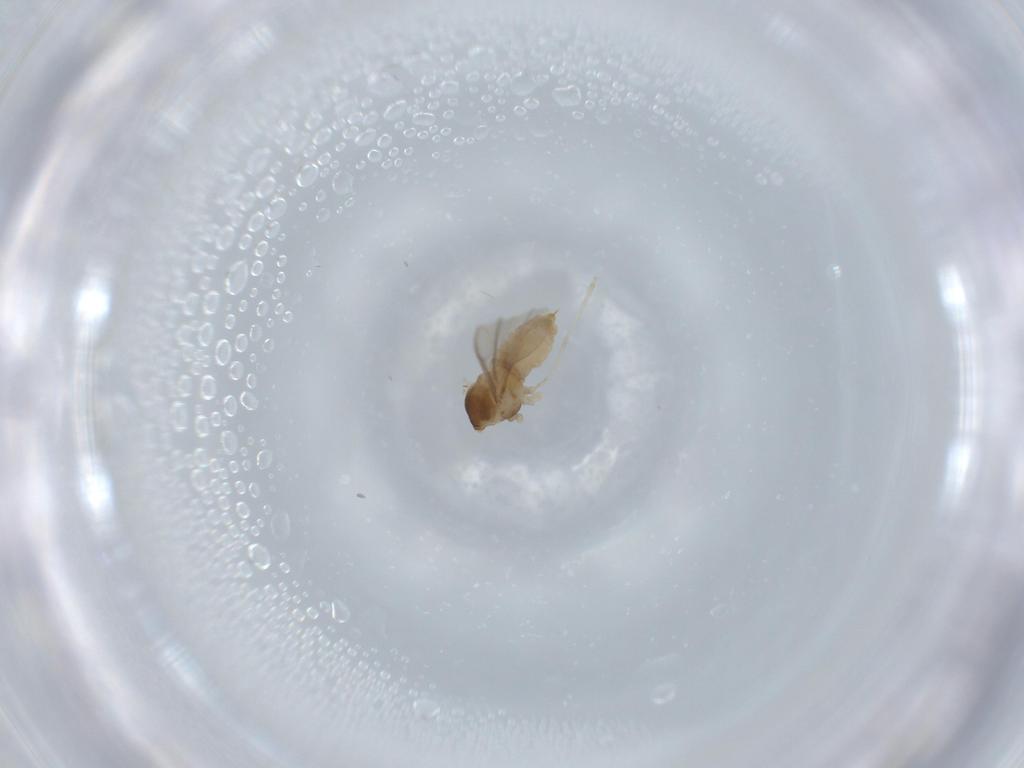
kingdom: Animalia
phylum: Arthropoda
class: Insecta
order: Diptera
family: Cecidomyiidae
